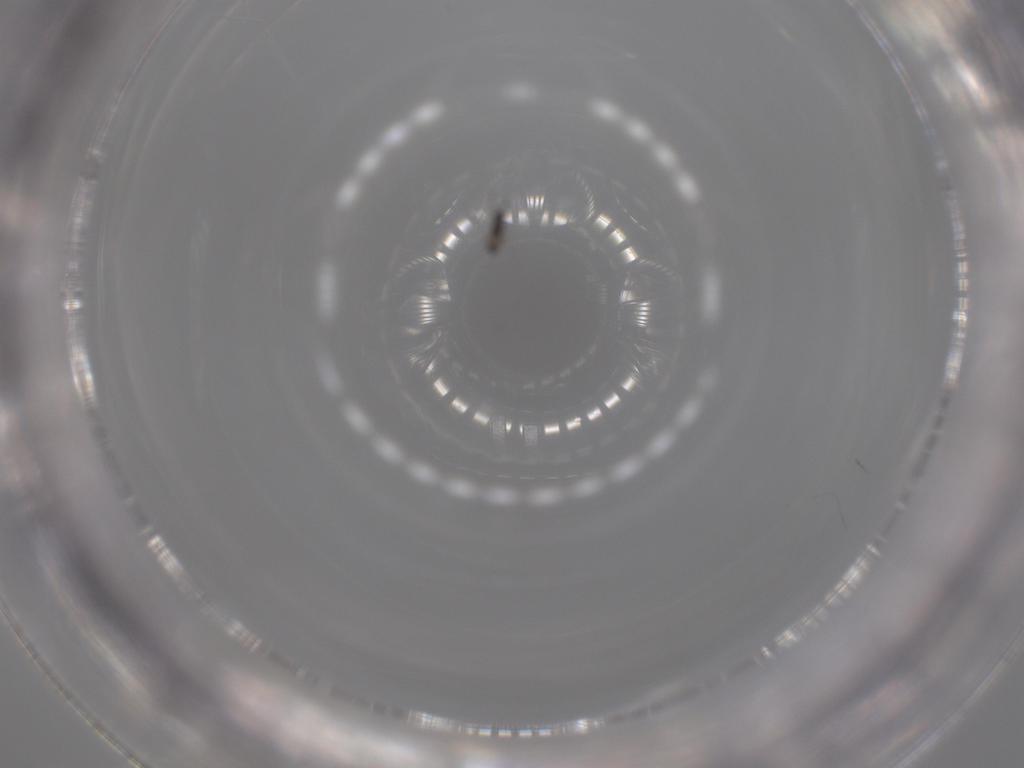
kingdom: Animalia
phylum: Arthropoda
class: Insecta
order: Hymenoptera
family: Mymaridae
